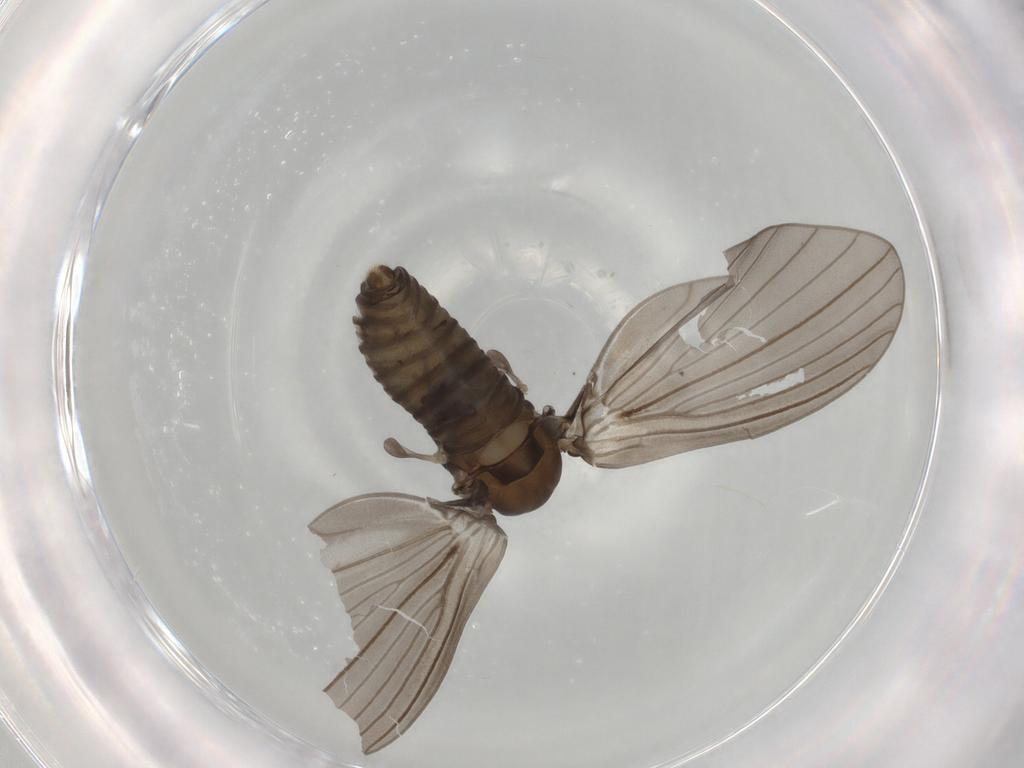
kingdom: Animalia
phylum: Arthropoda
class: Insecta
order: Diptera
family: Psychodidae
